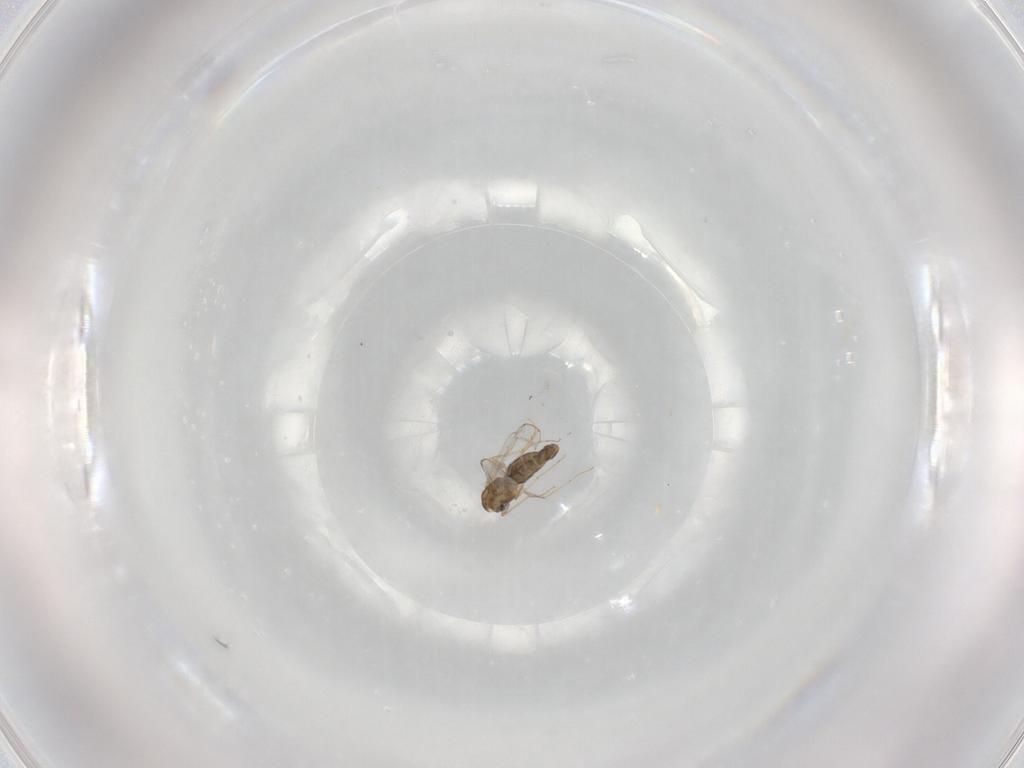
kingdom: Animalia
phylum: Arthropoda
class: Insecta
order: Diptera
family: Chironomidae
